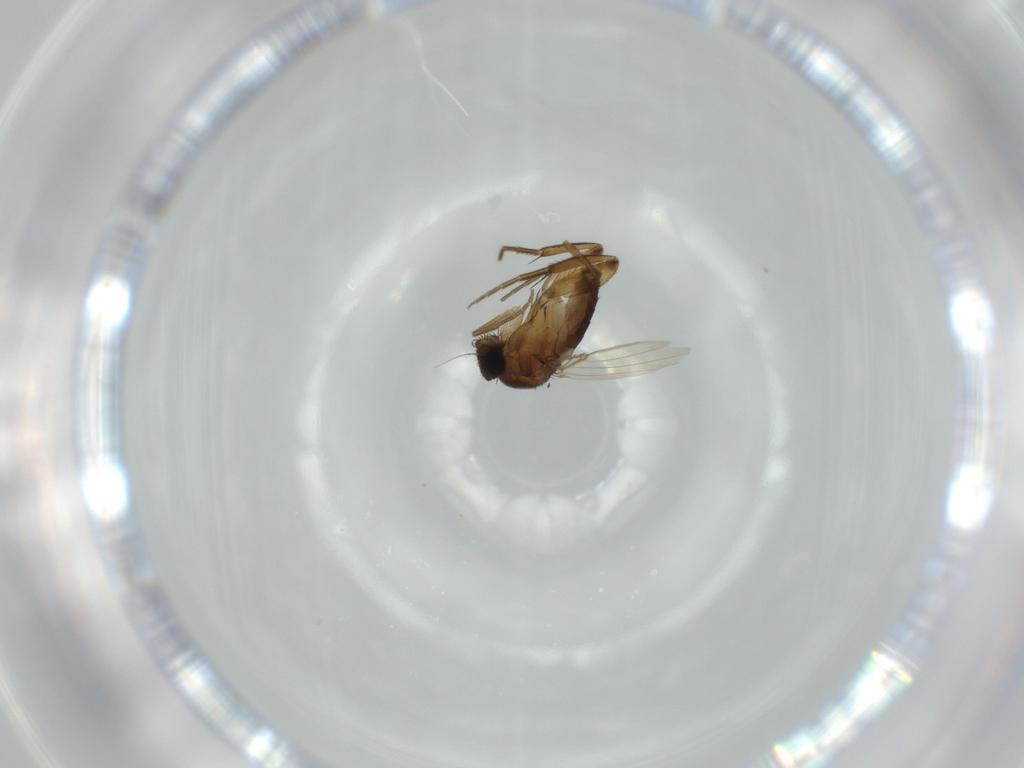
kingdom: Animalia
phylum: Arthropoda
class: Insecta
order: Diptera
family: Muscidae
